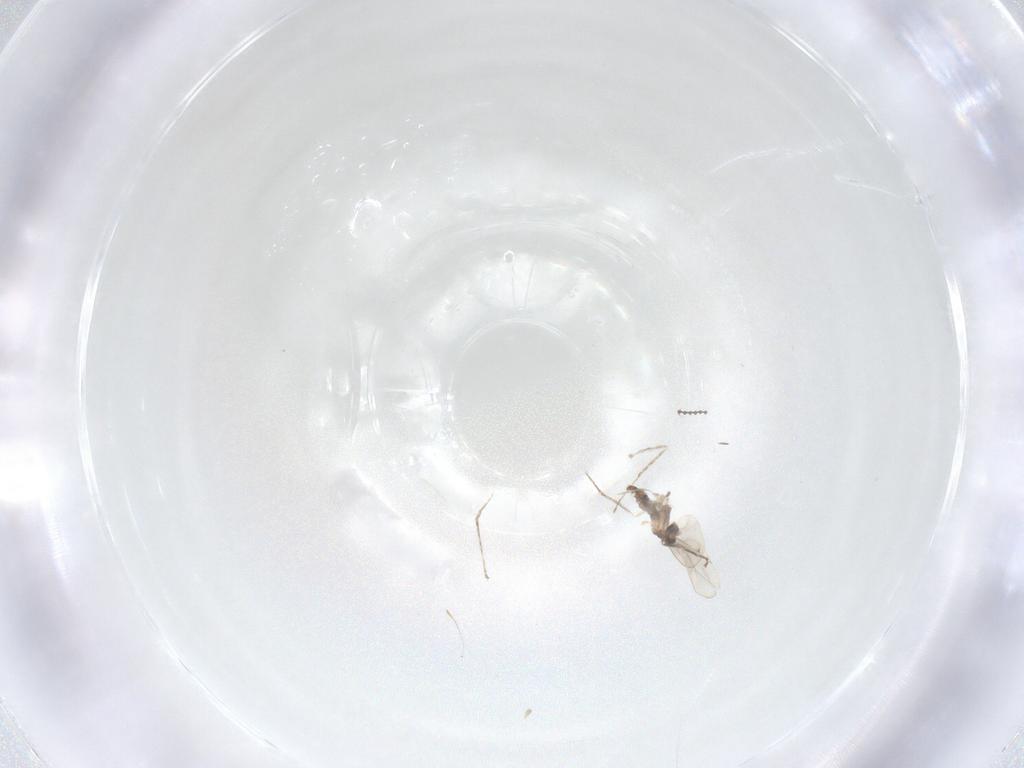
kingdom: Animalia
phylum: Arthropoda
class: Insecta
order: Diptera
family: Cecidomyiidae
